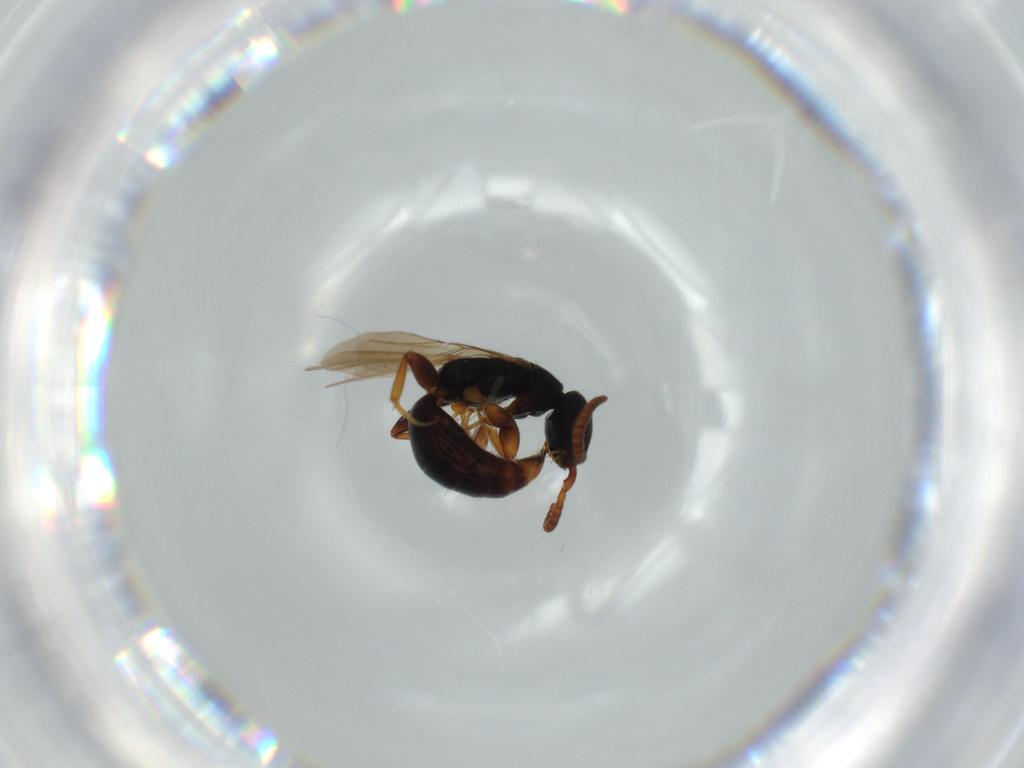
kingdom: Animalia
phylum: Arthropoda
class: Insecta
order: Hymenoptera
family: Bethylidae
